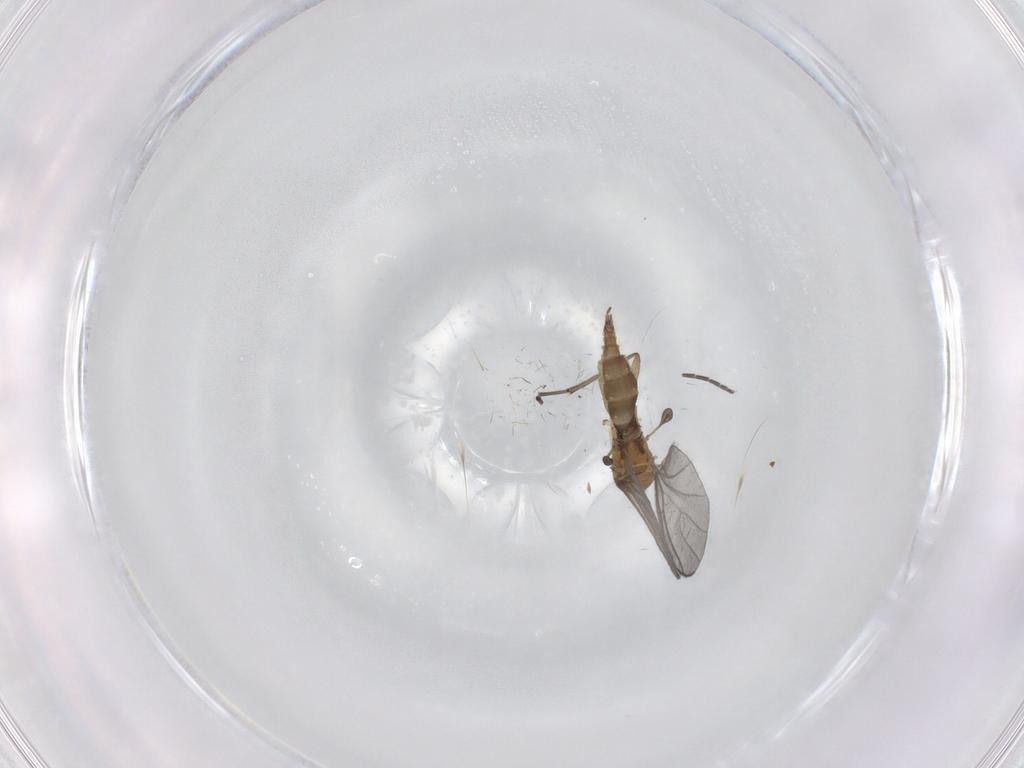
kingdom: Animalia
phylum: Arthropoda
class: Insecta
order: Diptera
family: Sciaridae
